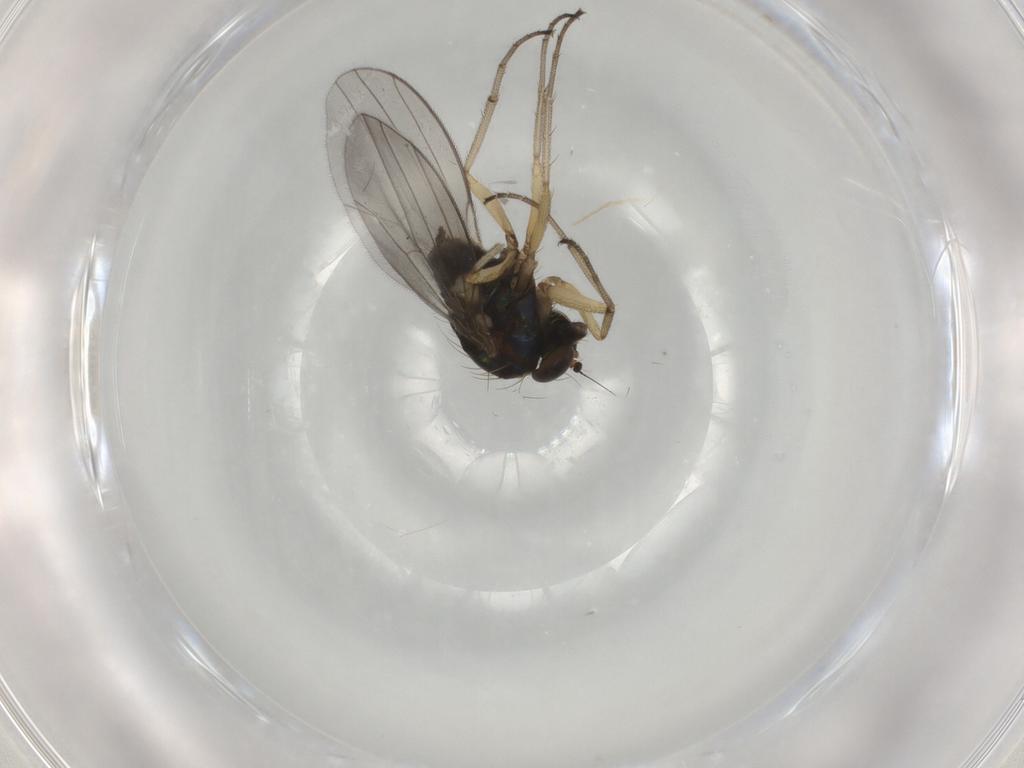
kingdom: Animalia
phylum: Arthropoda
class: Insecta
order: Diptera
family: Dolichopodidae
